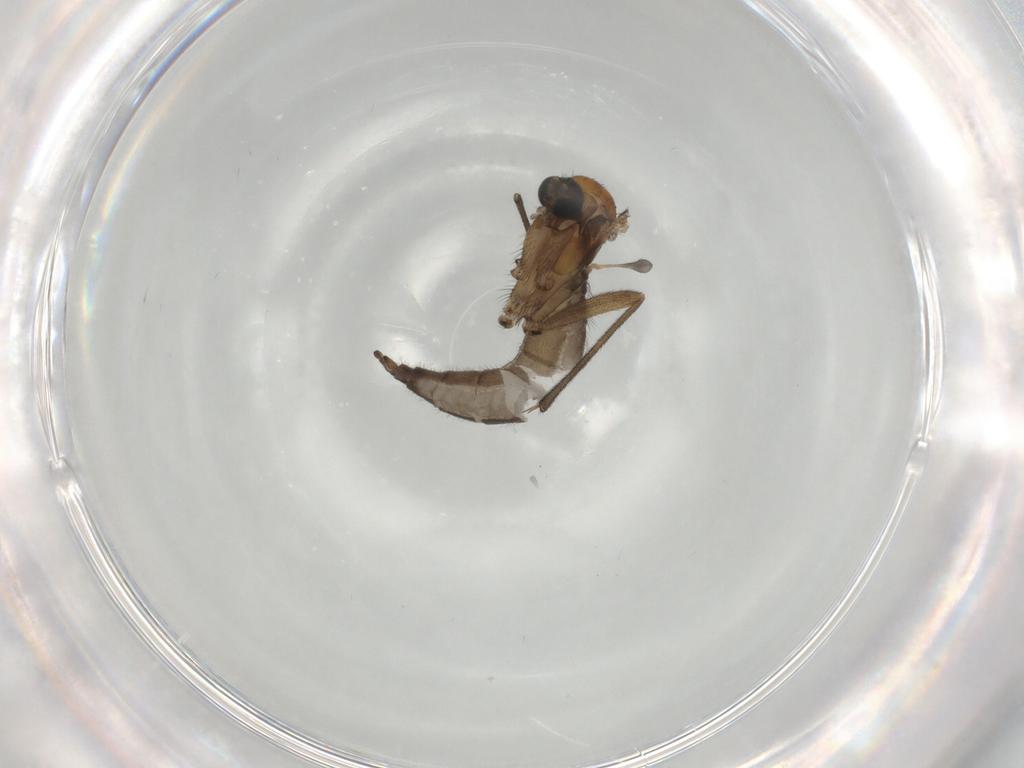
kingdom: Animalia
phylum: Arthropoda
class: Insecta
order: Diptera
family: Sciaridae
